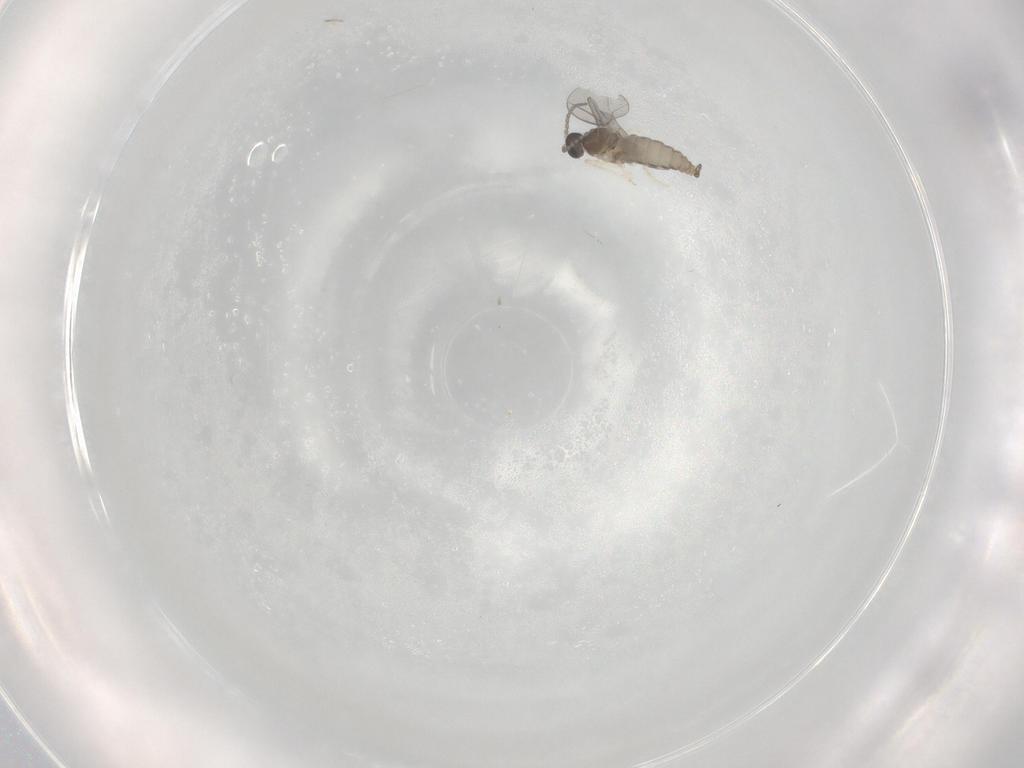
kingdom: Animalia
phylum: Arthropoda
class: Insecta
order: Diptera
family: Cecidomyiidae
